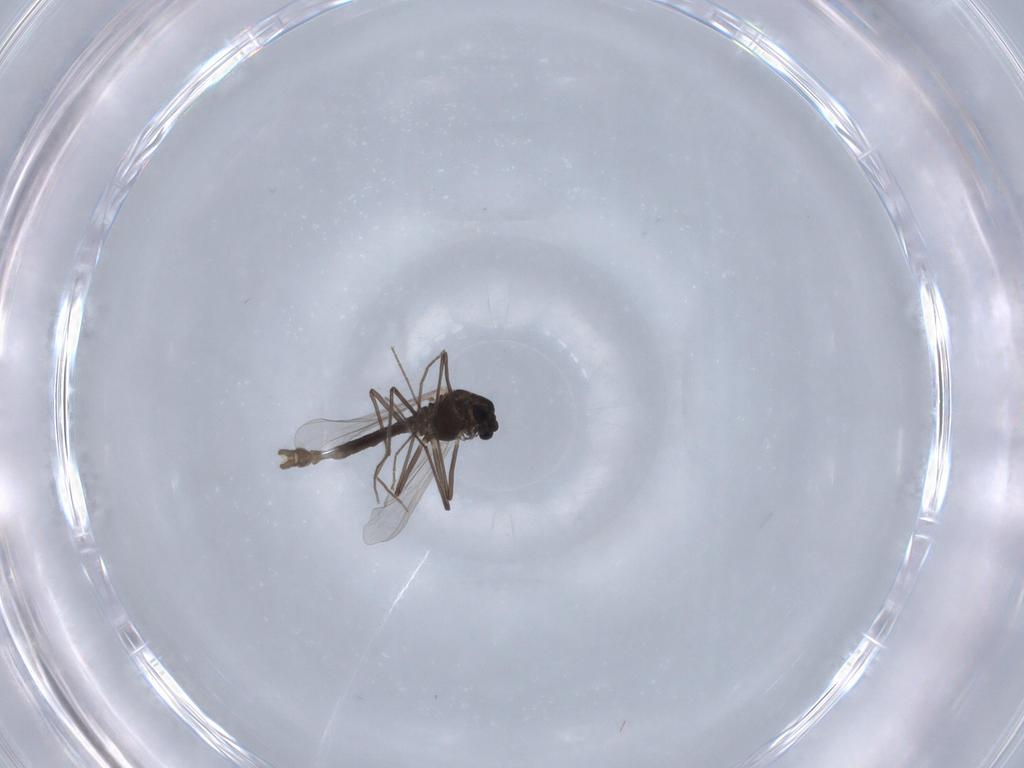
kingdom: Animalia
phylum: Arthropoda
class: Insecta
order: Diptera
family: Chironomidae
